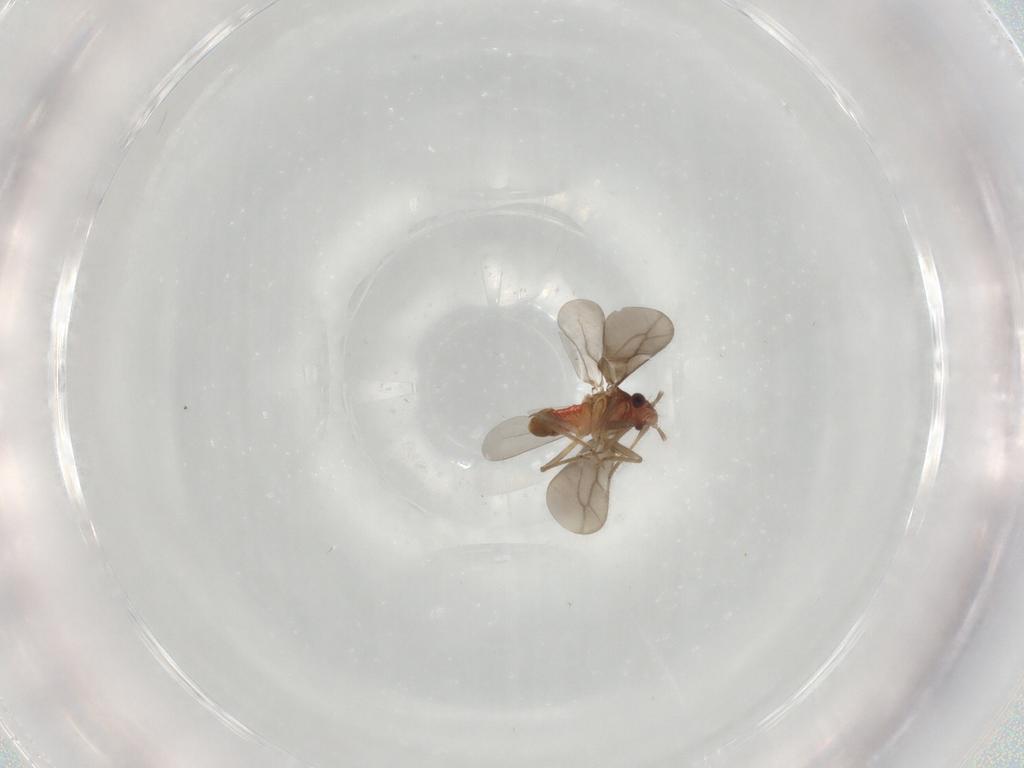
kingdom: Animalia
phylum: Arthropoda
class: Insecta
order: Hemiptera
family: Ceratocombidae
